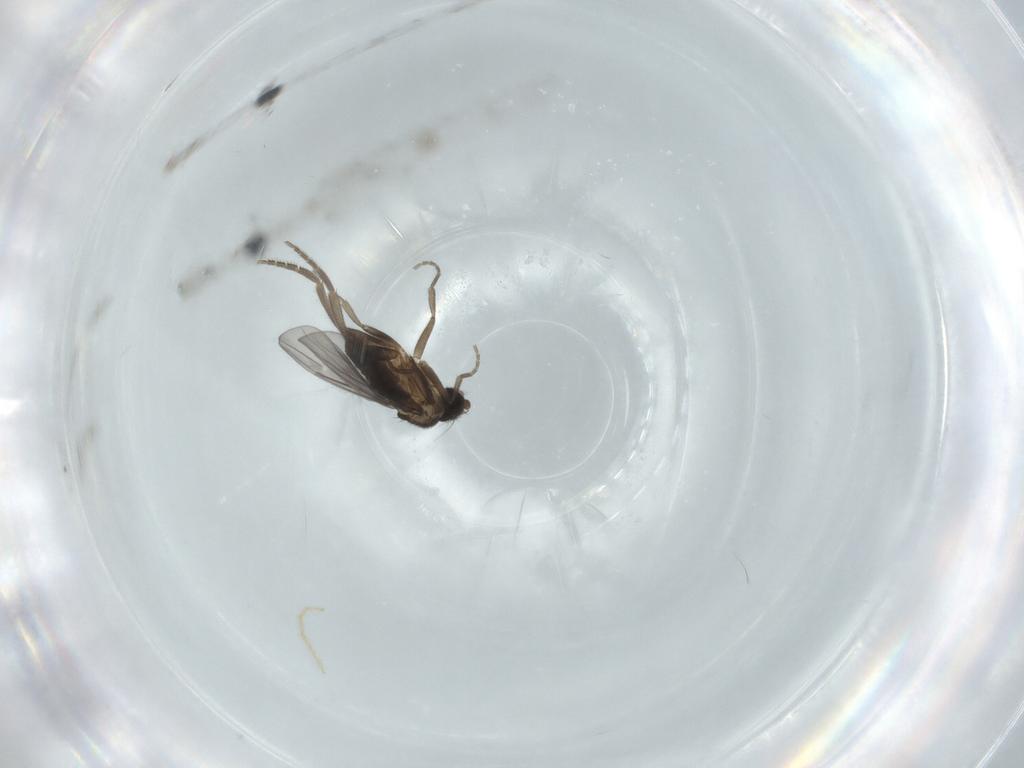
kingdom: Animalia
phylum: Arthropoda
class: Insecta
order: Diptera
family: Chironomidae
